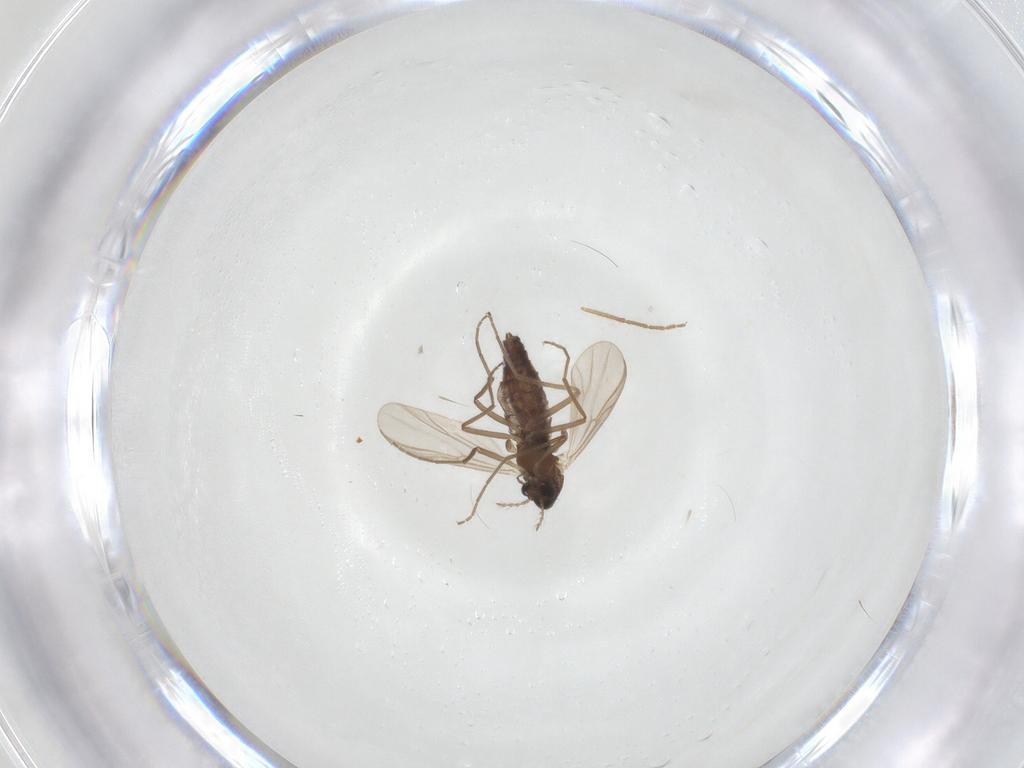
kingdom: Animalia
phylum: Arthropoda
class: Insecta
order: Diptera
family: Chironomidae
